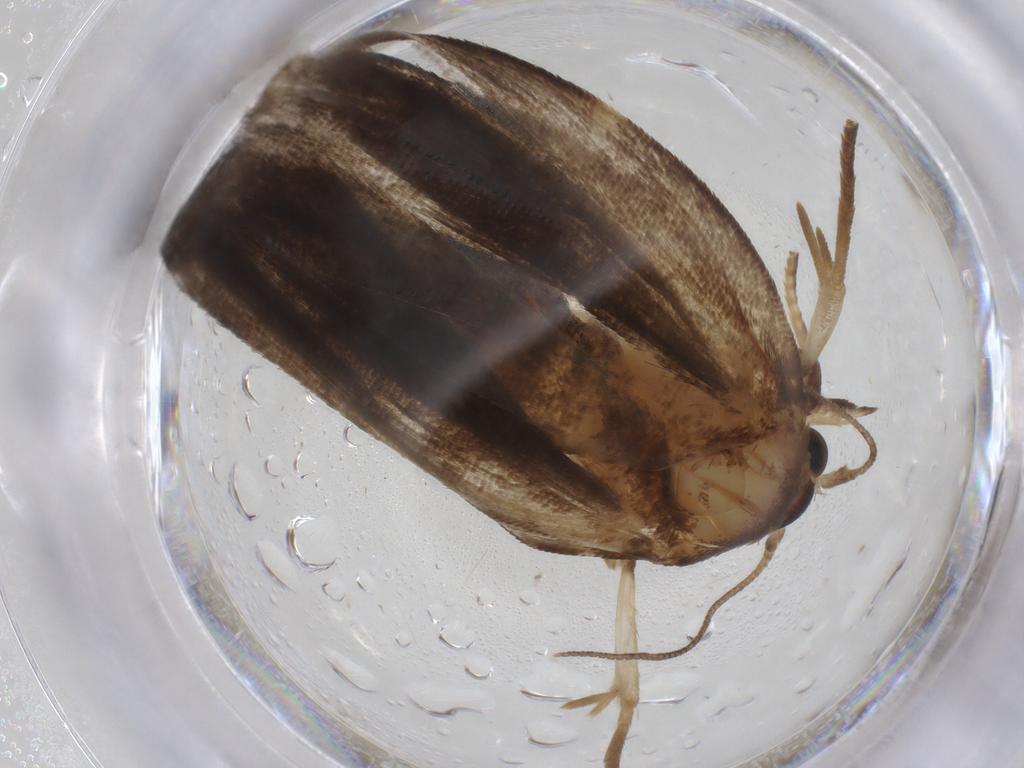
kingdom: Animalia
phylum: Arthropoda
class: Insecta
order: Lepidoptera
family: Immidae
